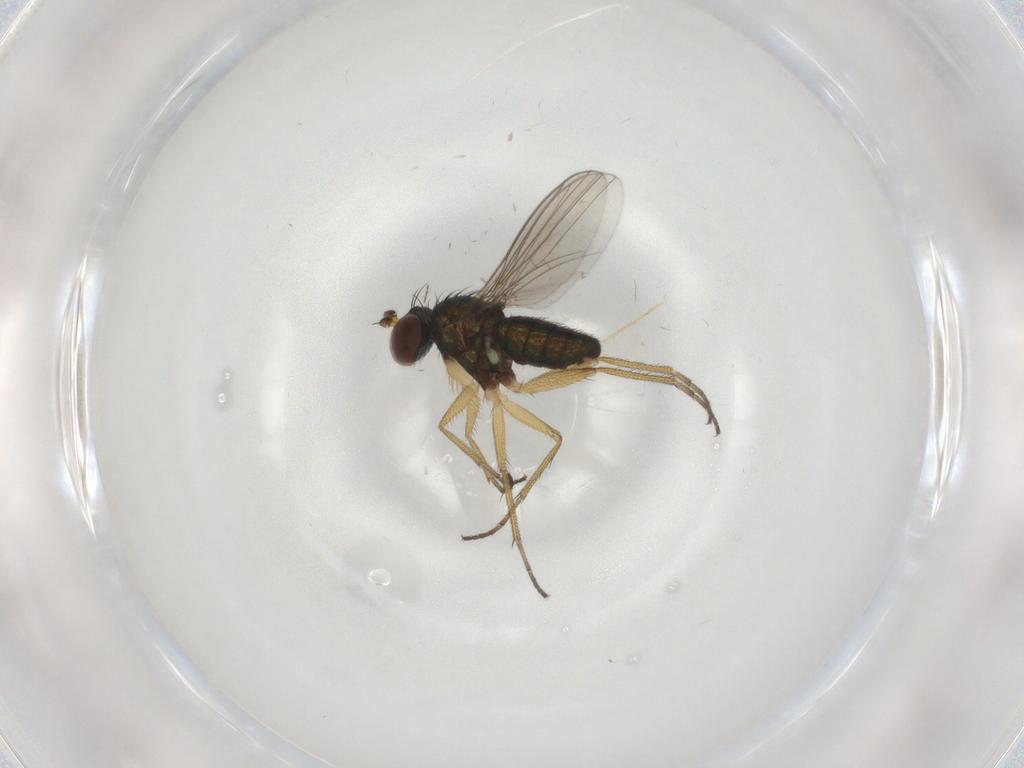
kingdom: Animalia
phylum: Arthropoda
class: Insecta
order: Diptera
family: Dolichopodidae
